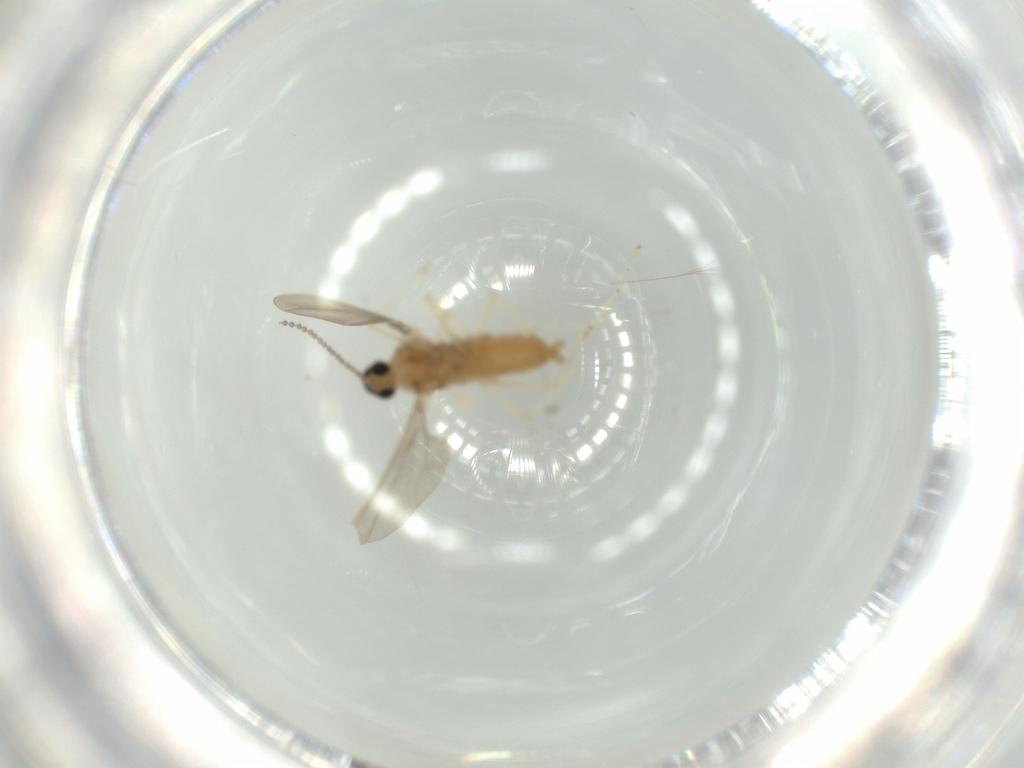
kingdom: Animalia
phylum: Arthropoda
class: Insecta
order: Diptera
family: Cecidomyiidae
